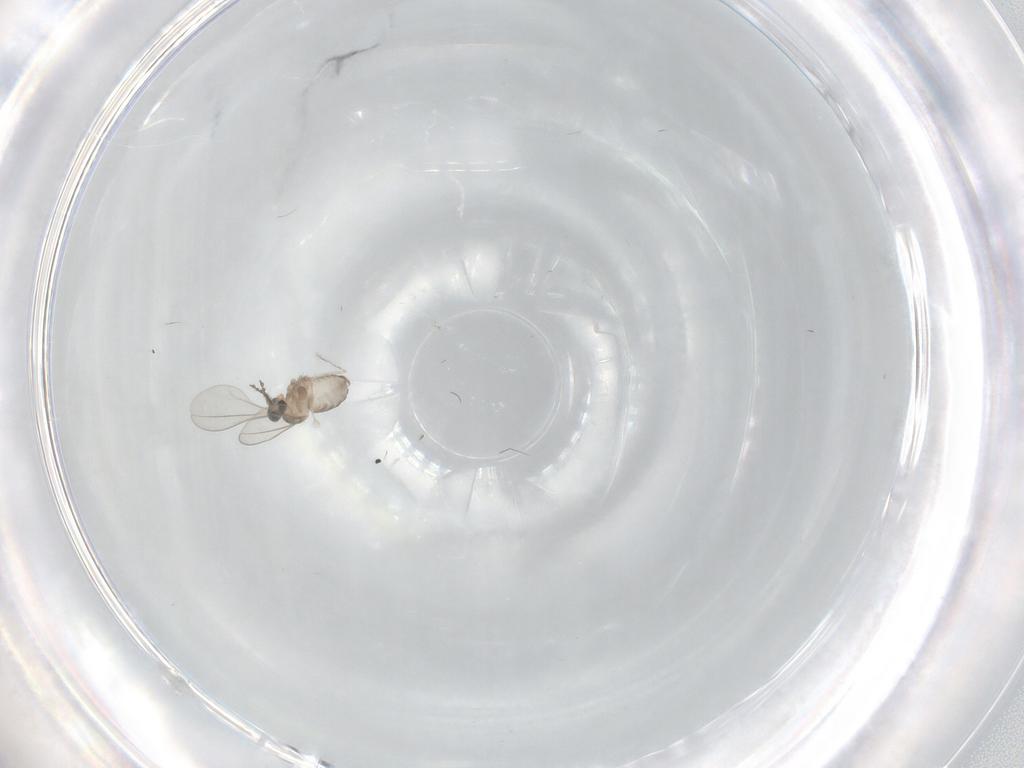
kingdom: Animalia
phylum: Arthropoda
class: Insecta
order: Diptera
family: Cecidomyiidae
